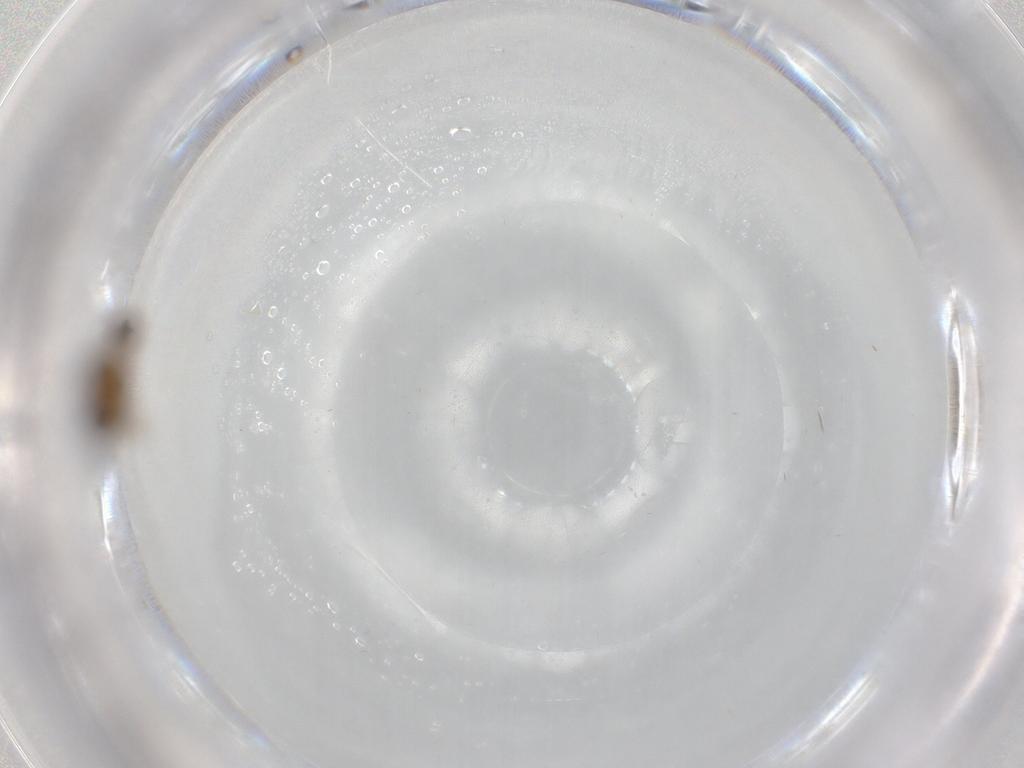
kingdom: Animalia
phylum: Arthropoda
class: Insecta
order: Diptera
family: Ceratopogonidae
